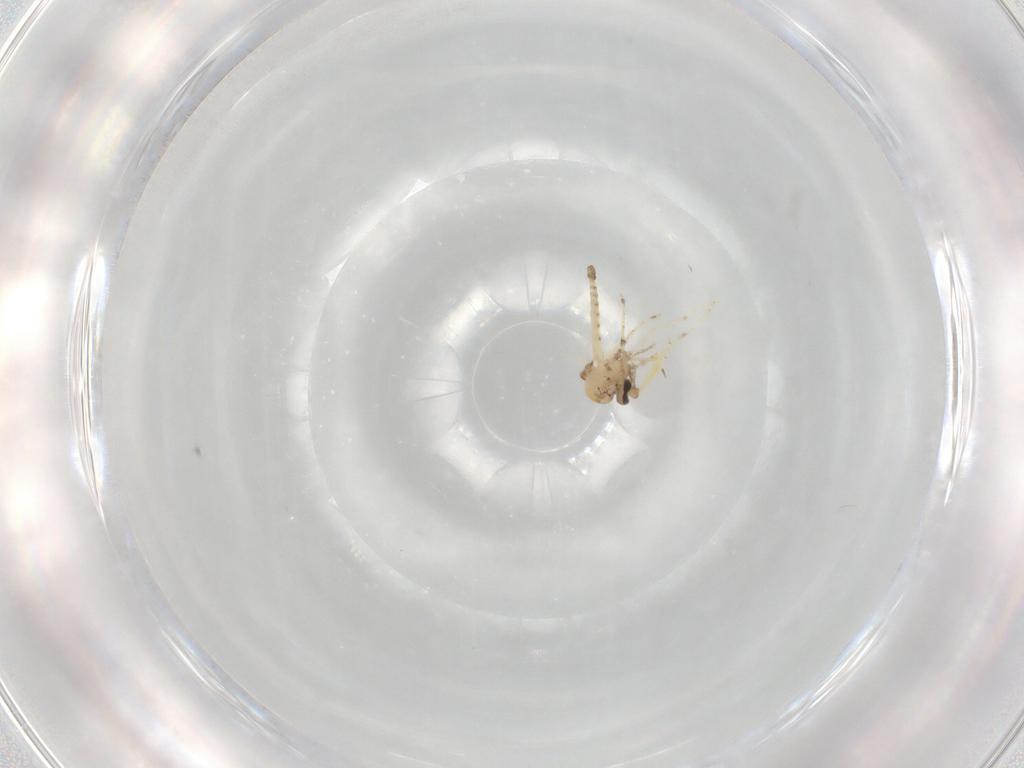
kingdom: Animalia
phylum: Arthropoda
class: Insecta
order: Diptera
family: Ceratopogonidae
